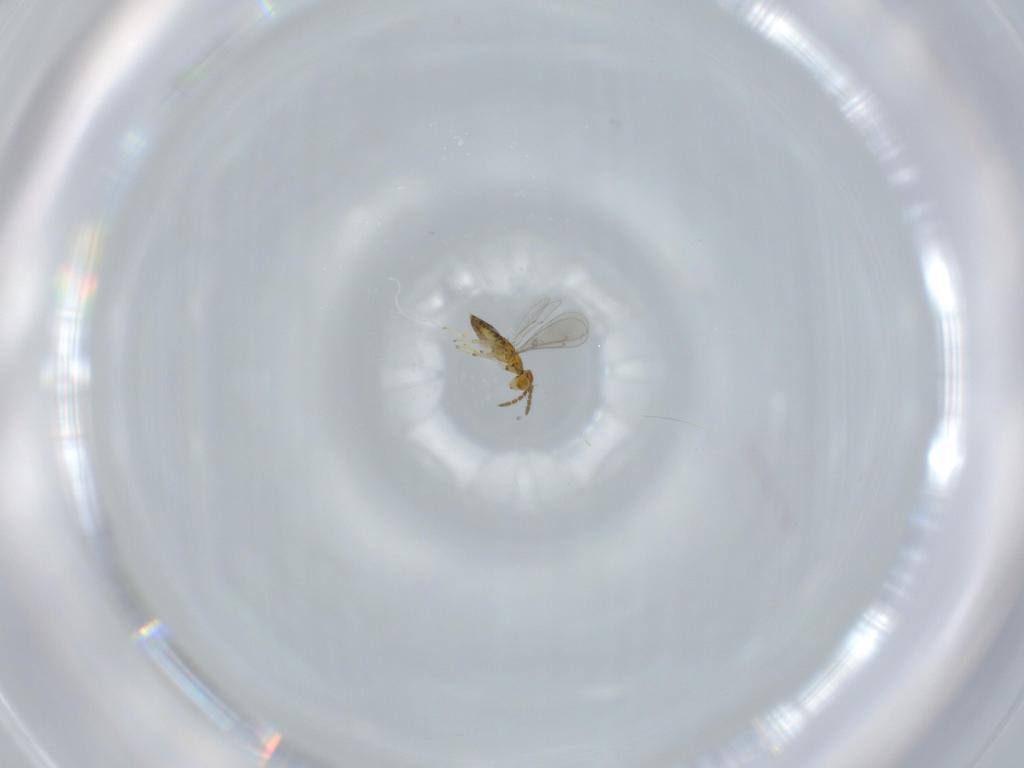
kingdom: Animalia
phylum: Arthropoda
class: Insecta
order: Hymenoptera
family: Aphelinidae
